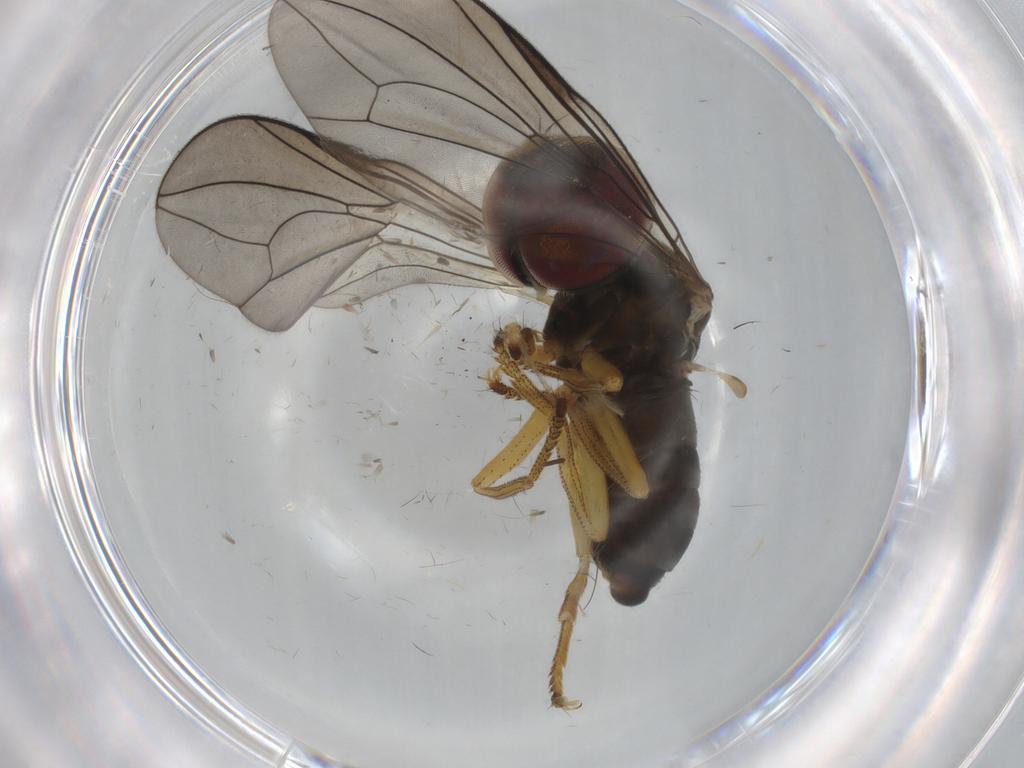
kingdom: Animalia
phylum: Arthropoda
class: Insecta
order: Diptera
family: Pipunculidae
